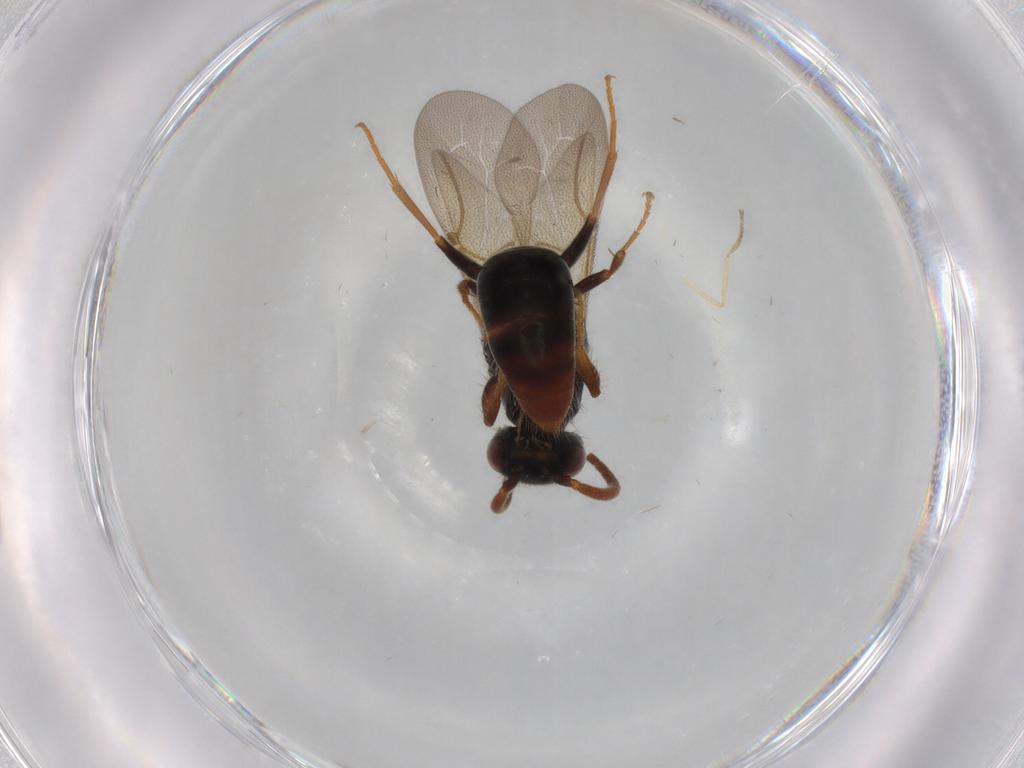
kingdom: Animalia
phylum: Arthropoda
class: Insecta
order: Hymenoptera
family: Bethylidae
